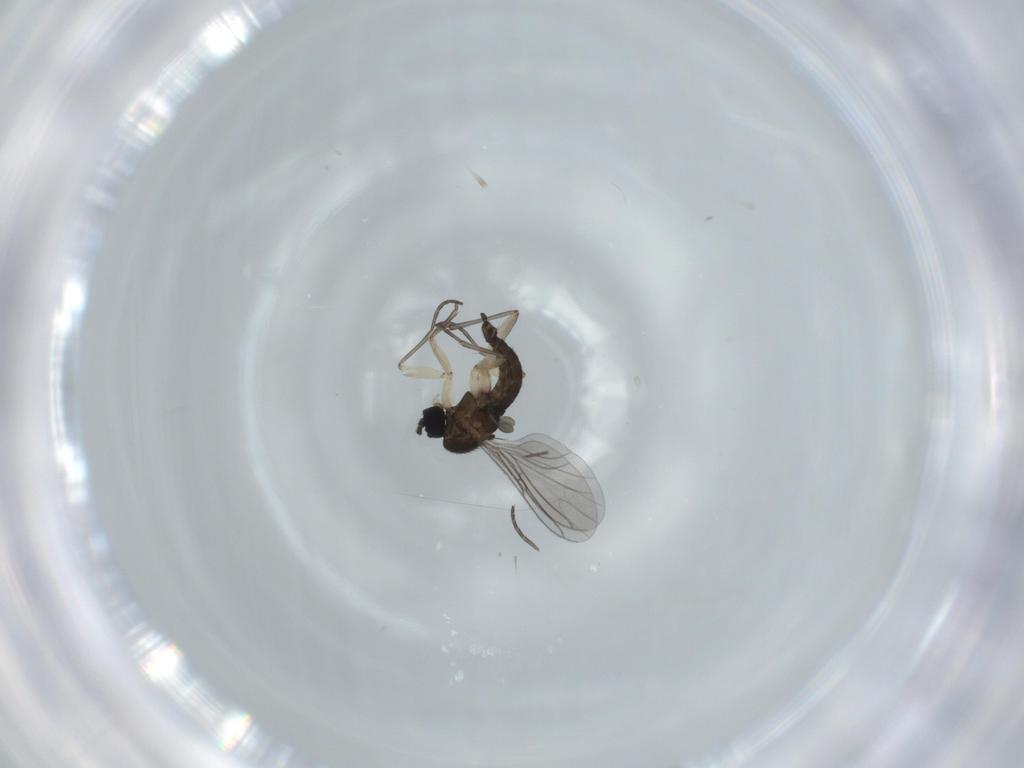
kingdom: Animalia
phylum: Arthropoda
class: Insecta
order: Diptera
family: Sciaridae
